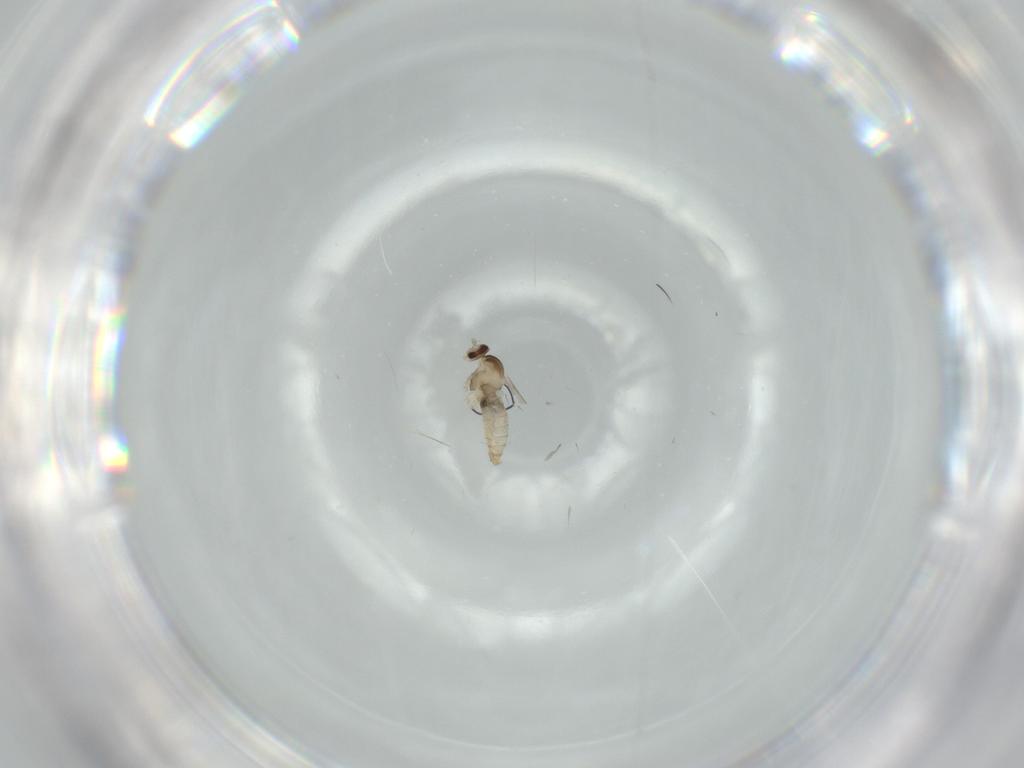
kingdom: Animalia
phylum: Arthropoda
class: Insecta
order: Diptera
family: Cecidomyiidae
